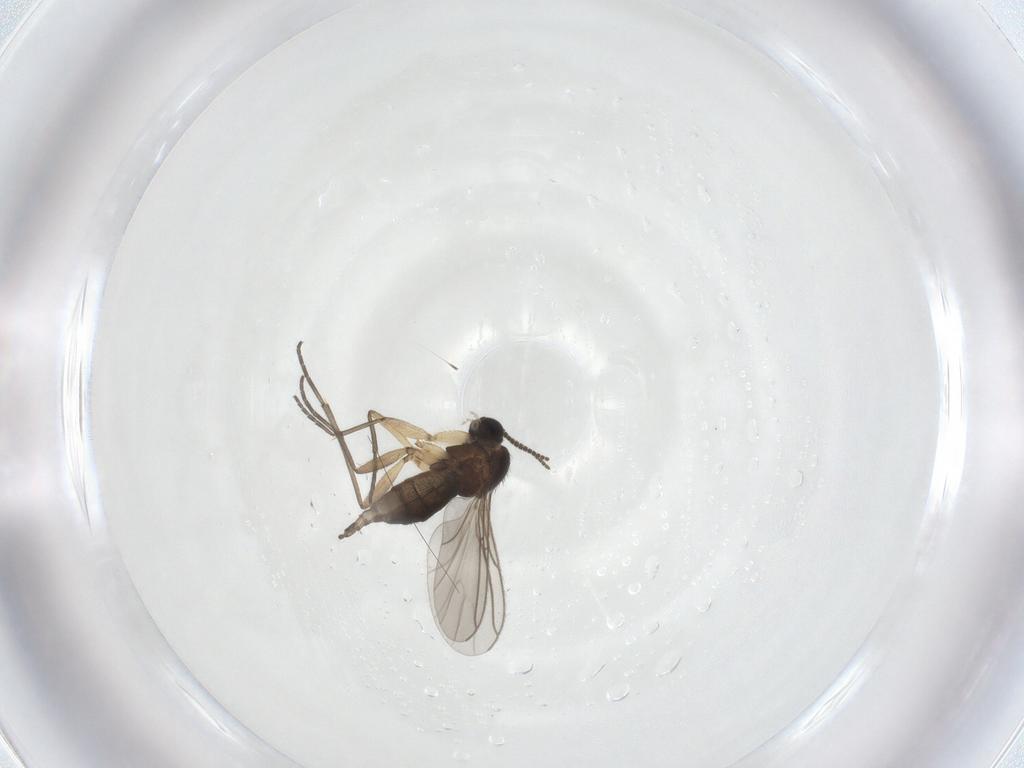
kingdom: Animalia
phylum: Arthropoda
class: Insecta
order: Diptera
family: Sciaridae
